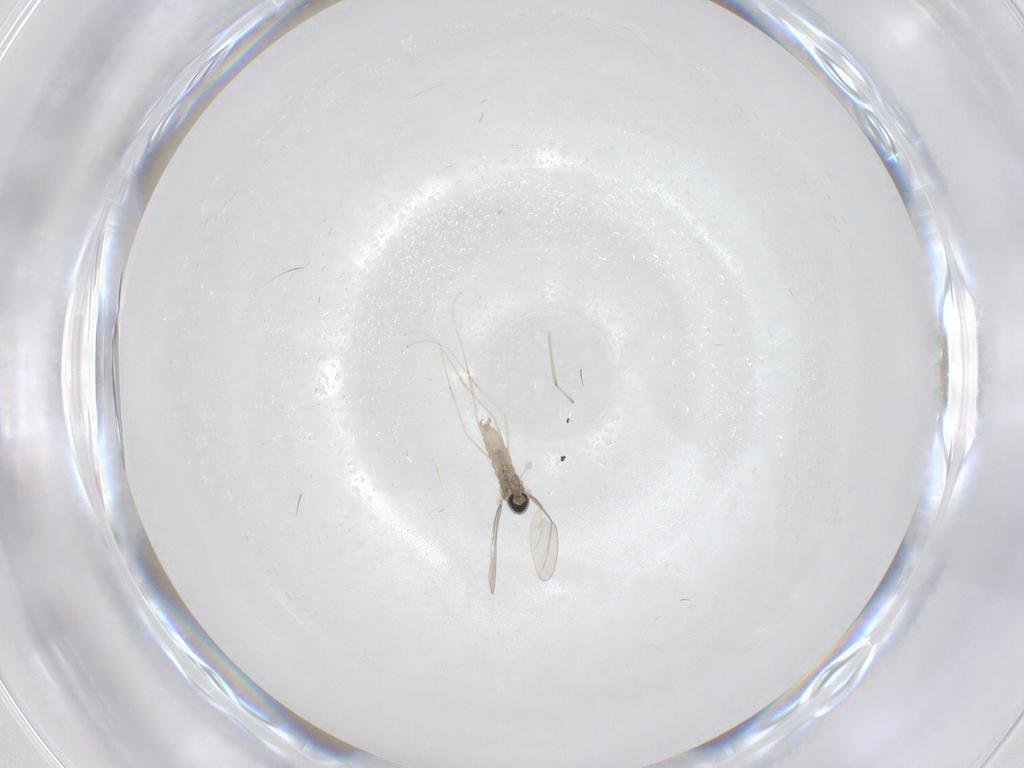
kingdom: Animalia
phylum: Arthropoda
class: Insecta
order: Diptera
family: Cecidomyiidae
